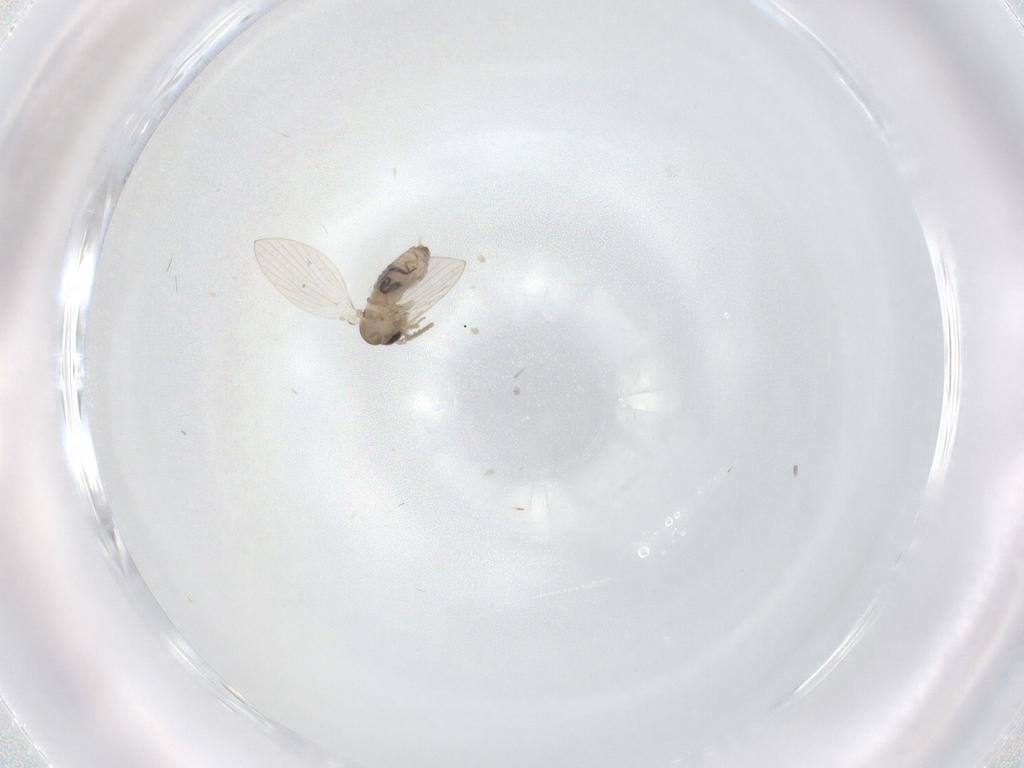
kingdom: Animalia
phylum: Arthropoda
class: Insecta
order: Diptera
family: Psychodidae
